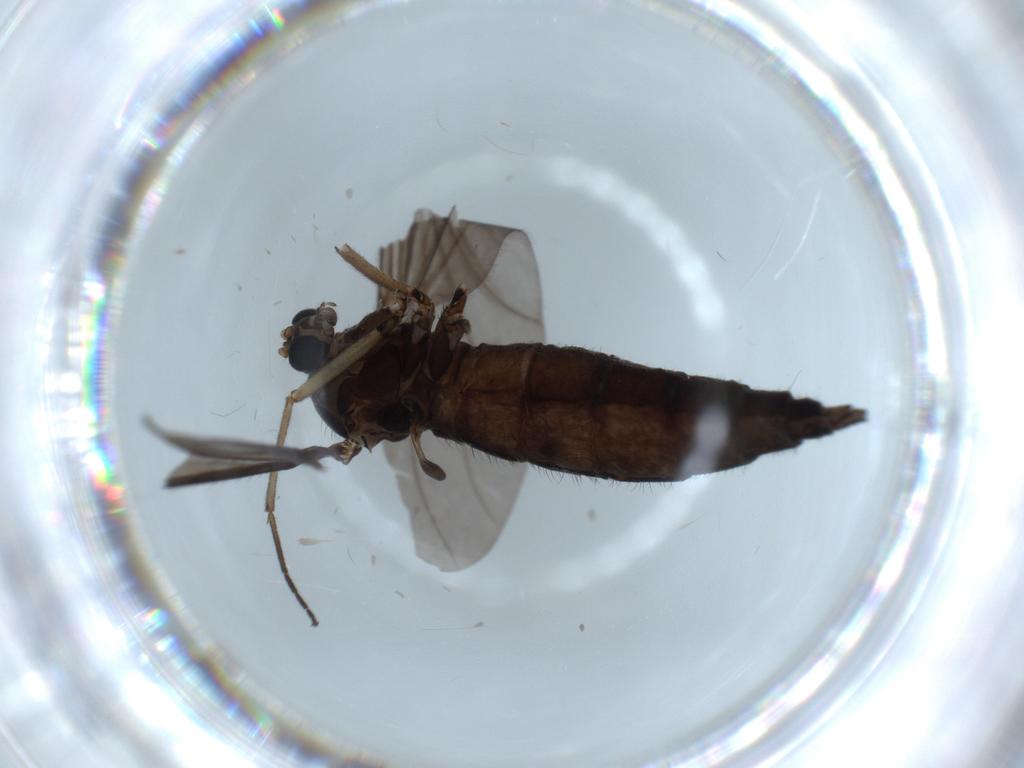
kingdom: Animalia
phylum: Arthropoda
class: Insecta
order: Diptera
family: Sciaridae
